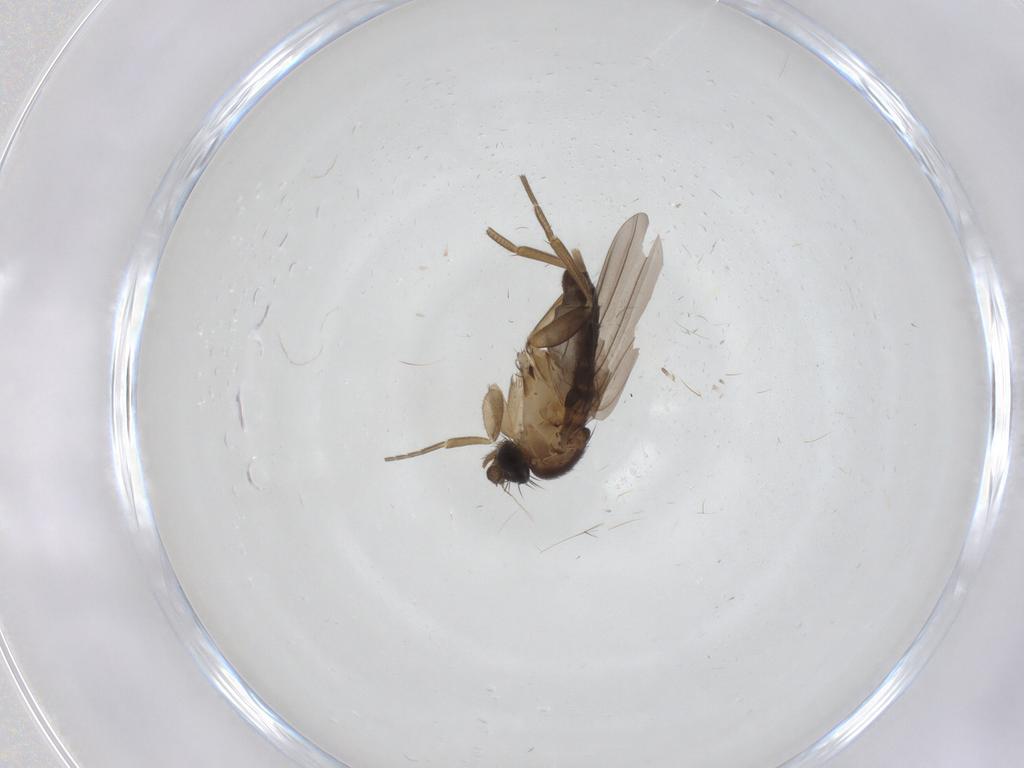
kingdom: Animalia
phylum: Arthropoda
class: Insecta
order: Diptera
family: Phoridae
